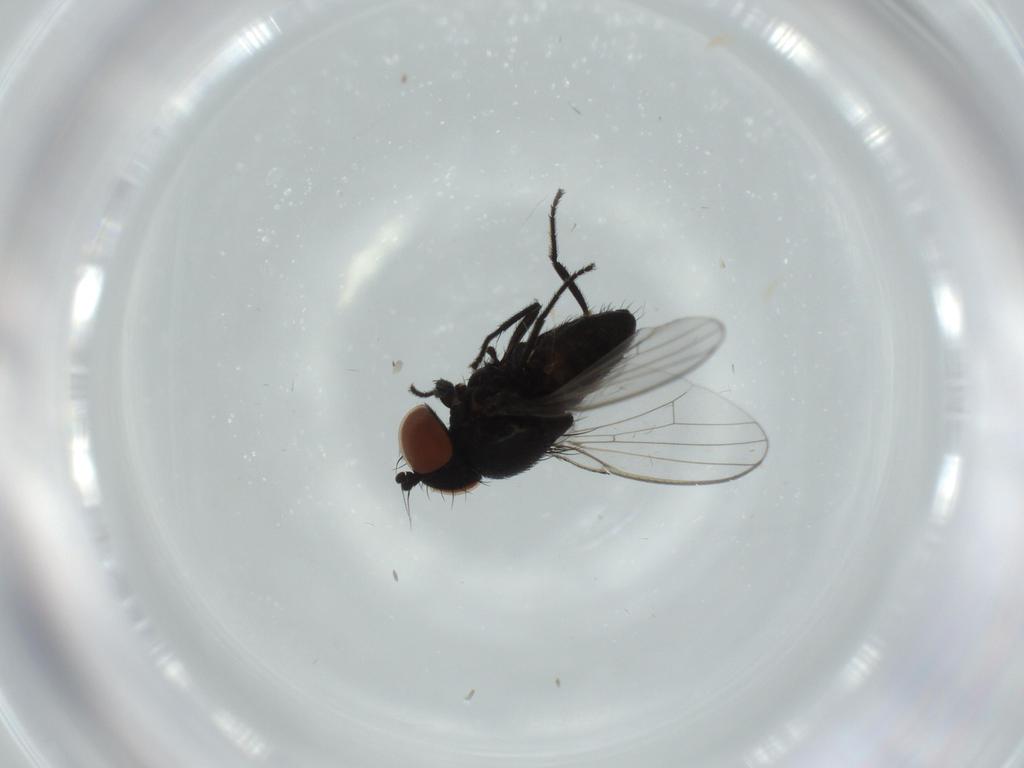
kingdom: Animalia
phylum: Arthropoda
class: Insecta
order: Diptera
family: Milichiidae
